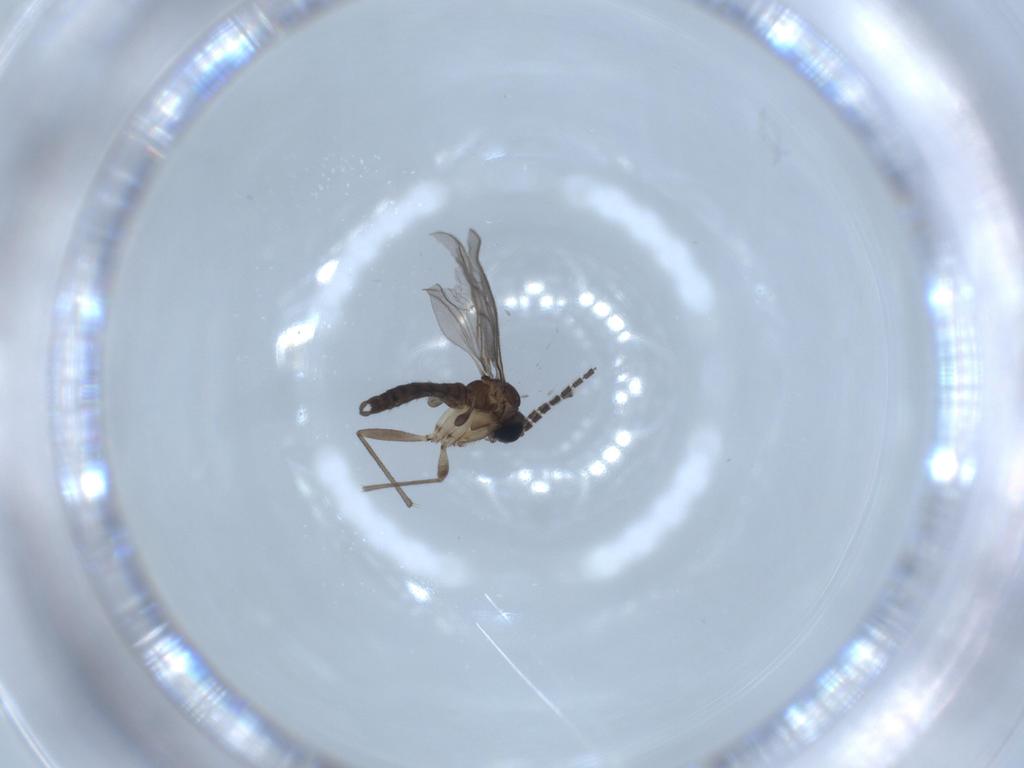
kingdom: Animalia
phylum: Arthropoda
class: Insecta
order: Diptera
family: Sciaridae
